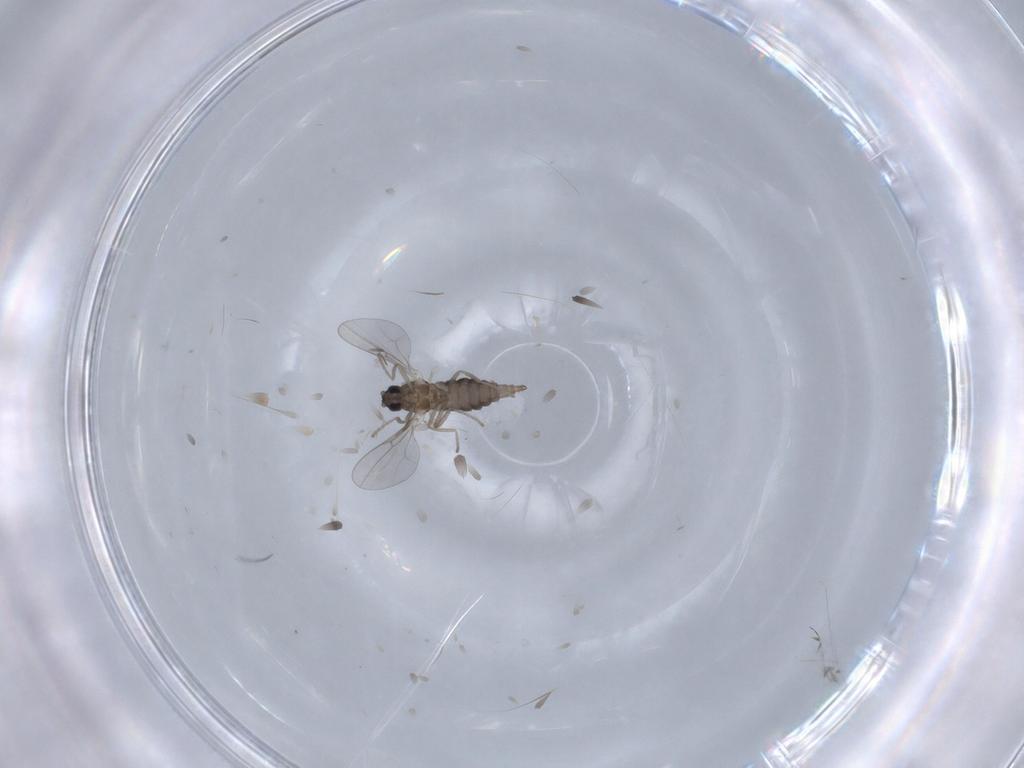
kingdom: Animalia
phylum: Arthropoda
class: Insecta
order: Diptera
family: Cecidomyiidae
